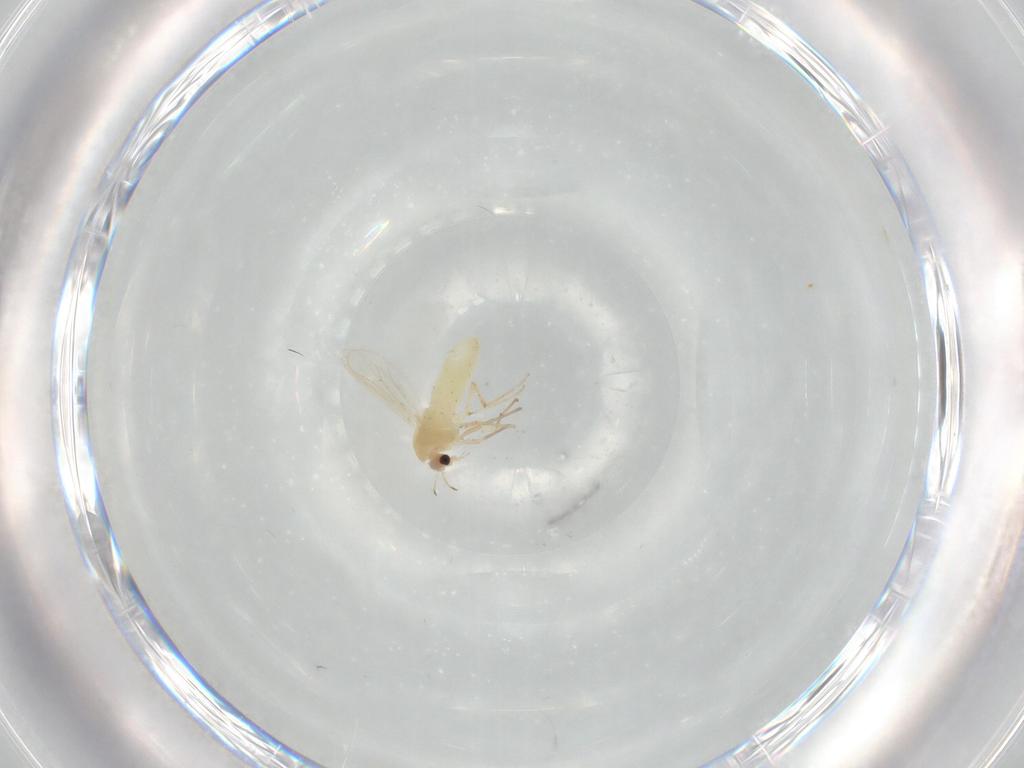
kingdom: Animalia
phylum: Arthropoda
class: Insecta
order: Diptera
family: Chironomidae
